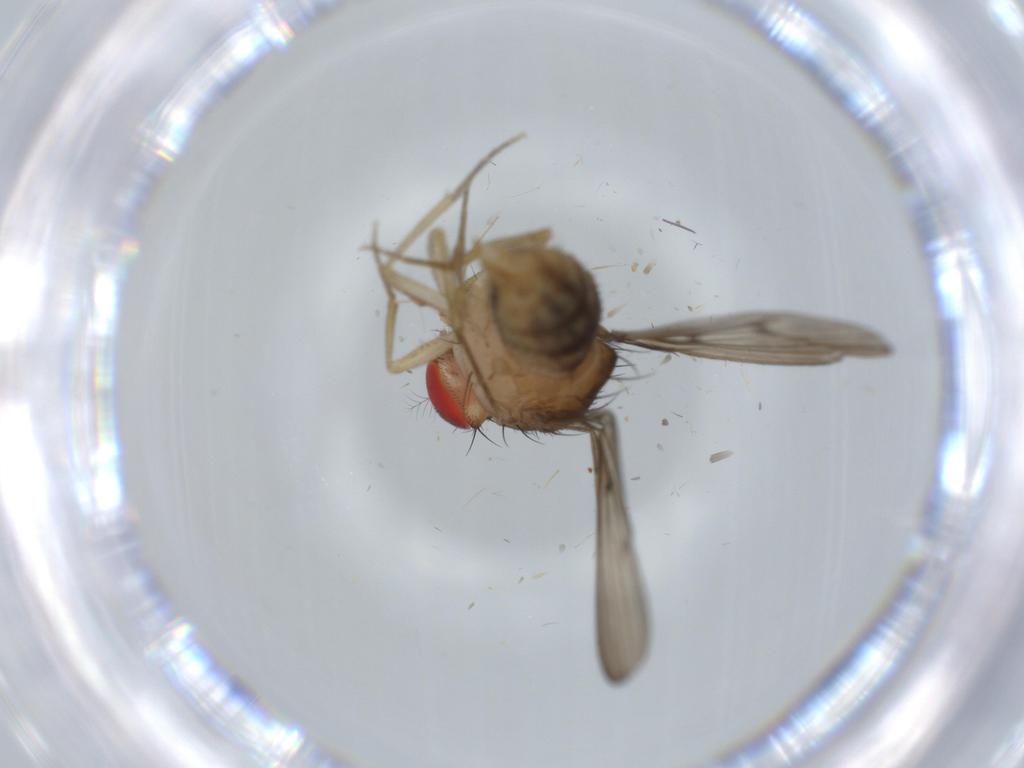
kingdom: Animalia
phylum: Arthropoda
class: Insecta
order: Diptera
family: Drosophilidae
